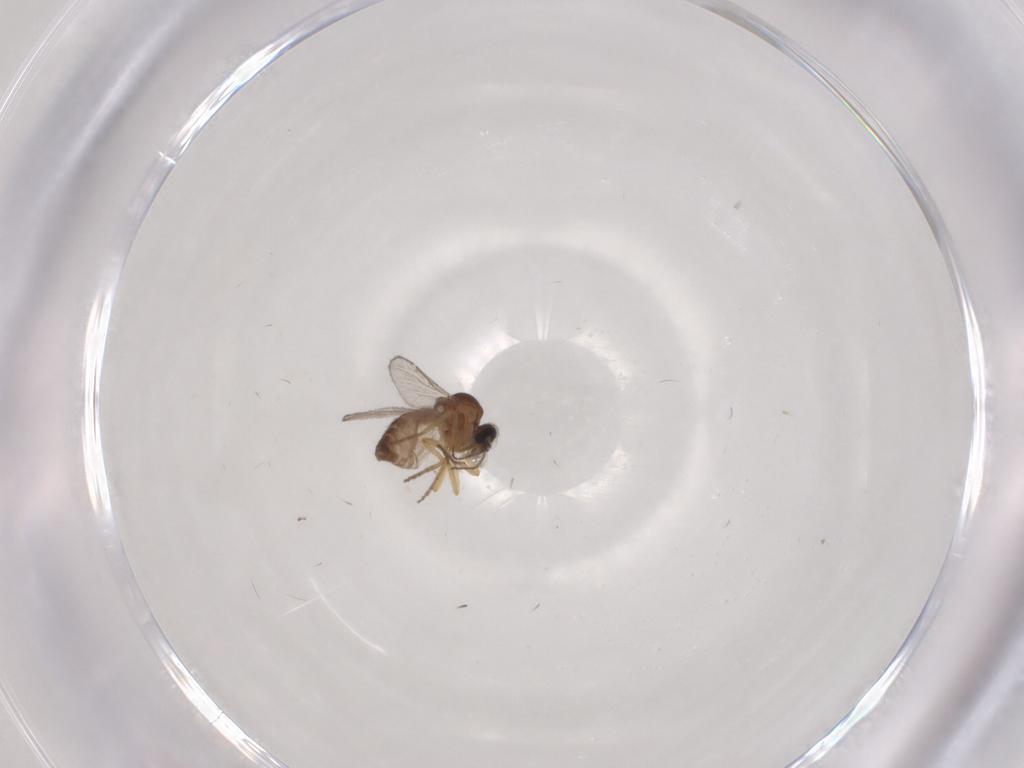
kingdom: Animalia
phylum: Arthropoda
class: Insecta
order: Diptera
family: Ceratopogonidae
